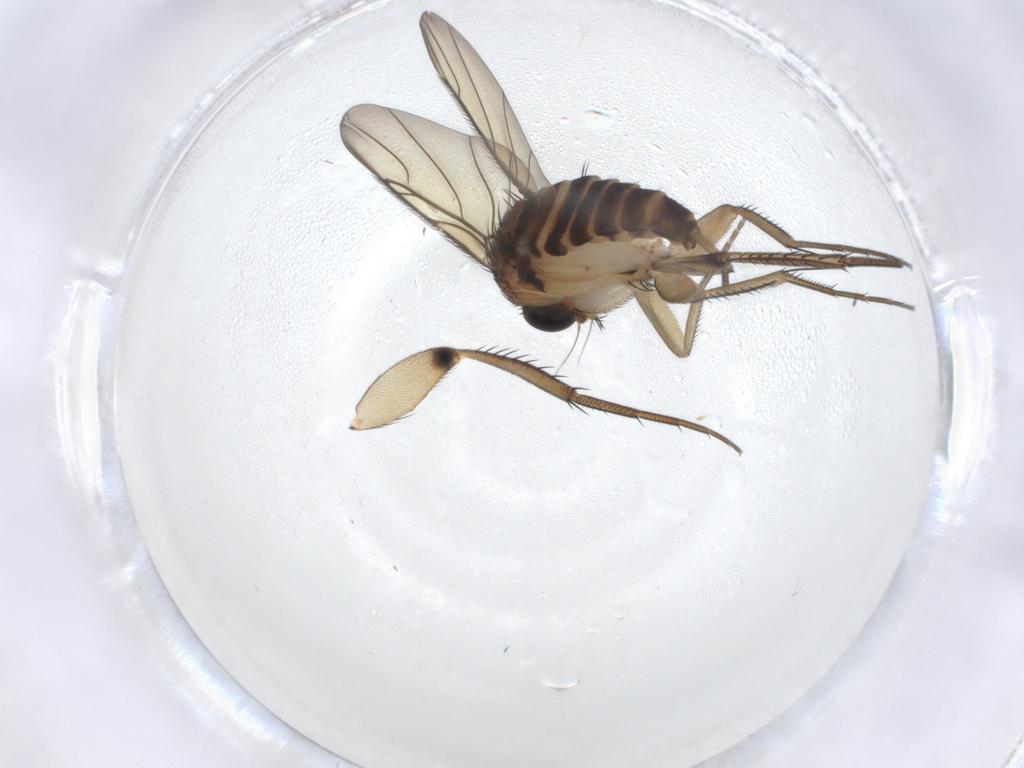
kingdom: Animalia
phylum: Arthropoda
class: Insecta
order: Diptera
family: Phoridae
